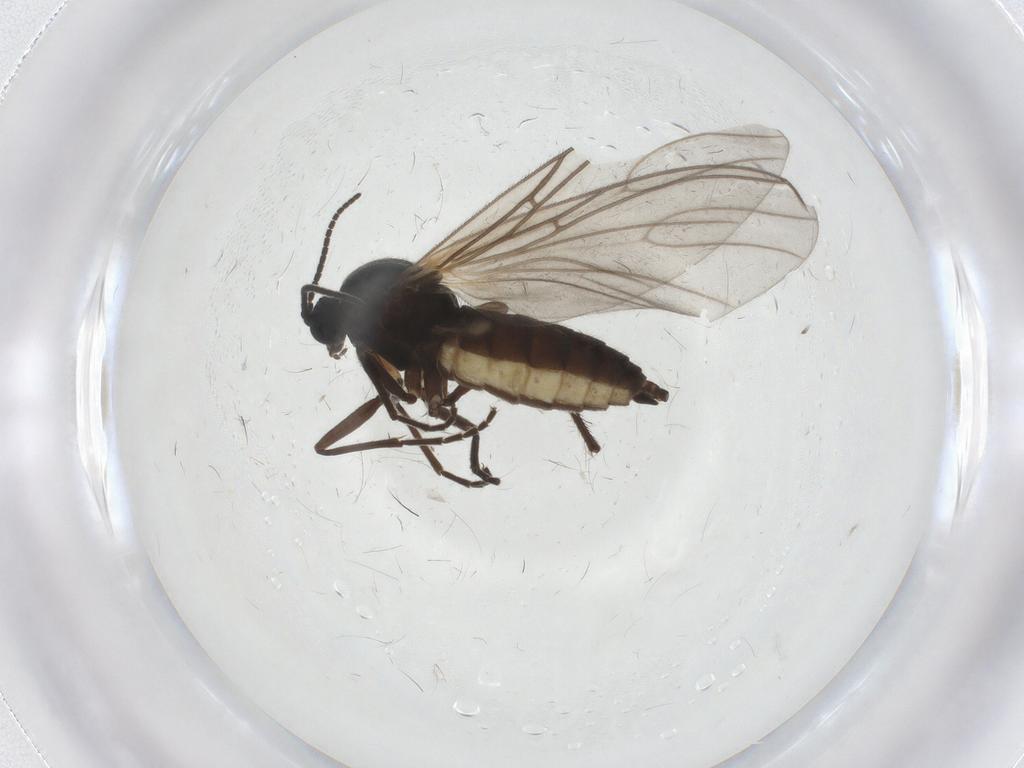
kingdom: Animalia
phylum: Arthropoda
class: Insecta
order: Diptera
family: Sciaridae
